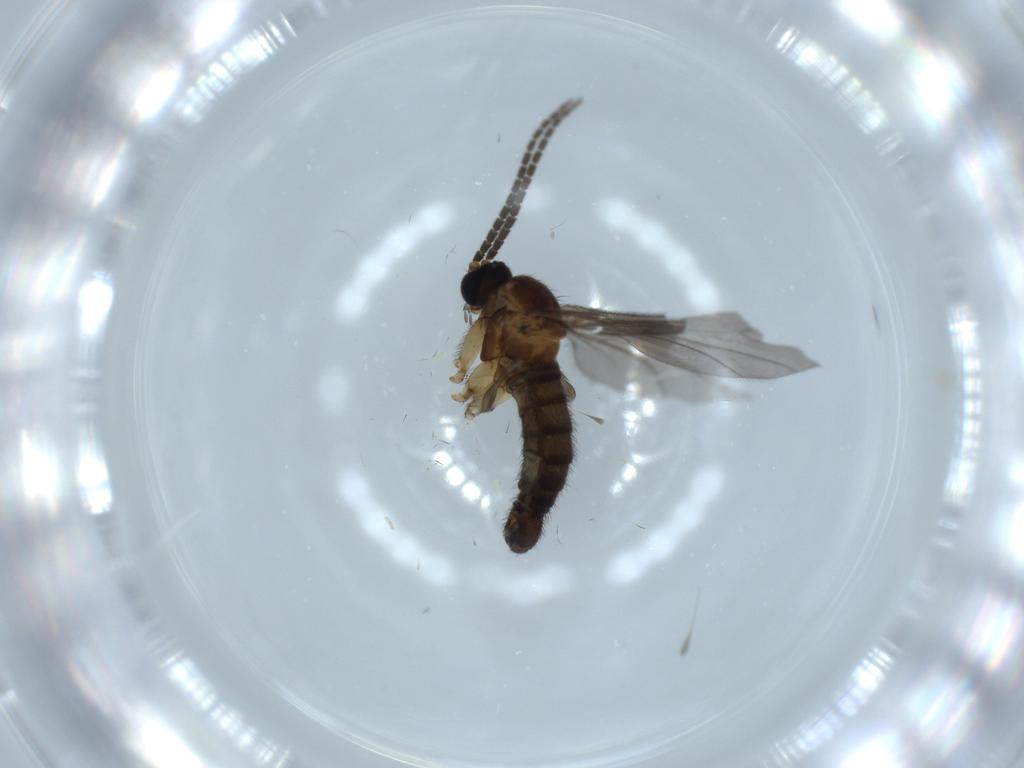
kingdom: Animalia
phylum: Arthropoda
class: Insecta
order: Diptera
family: Sciaridae
